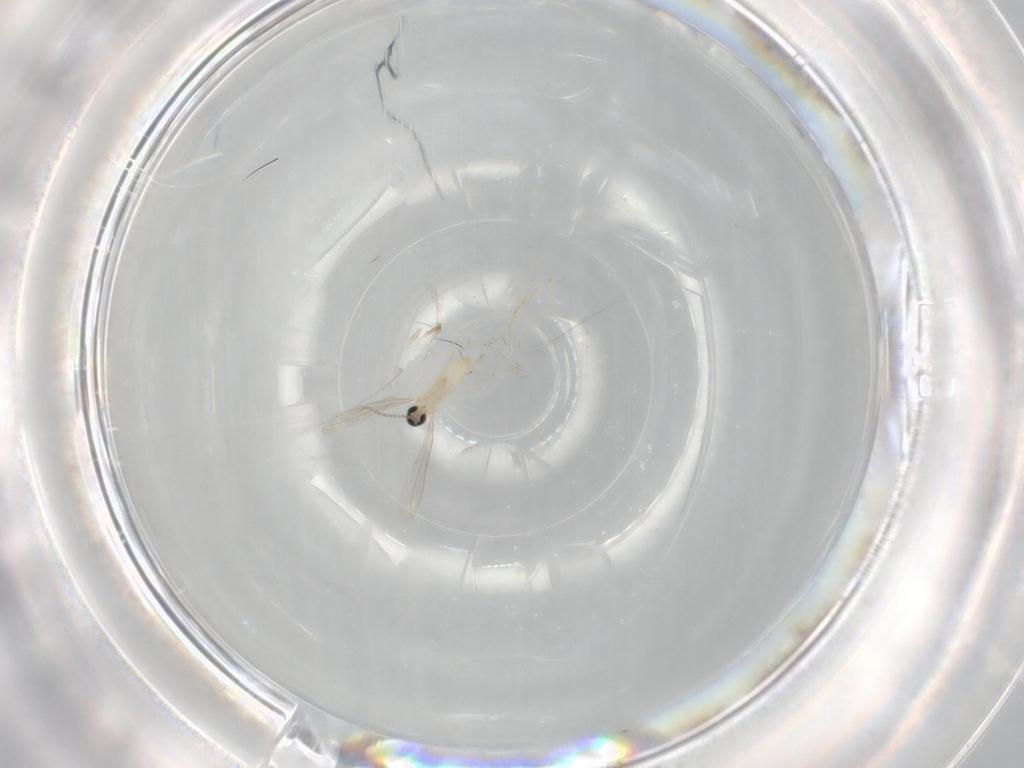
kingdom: Animalia
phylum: Arthropoda
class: Insecta
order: Diptera
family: Cecidomyiidae
